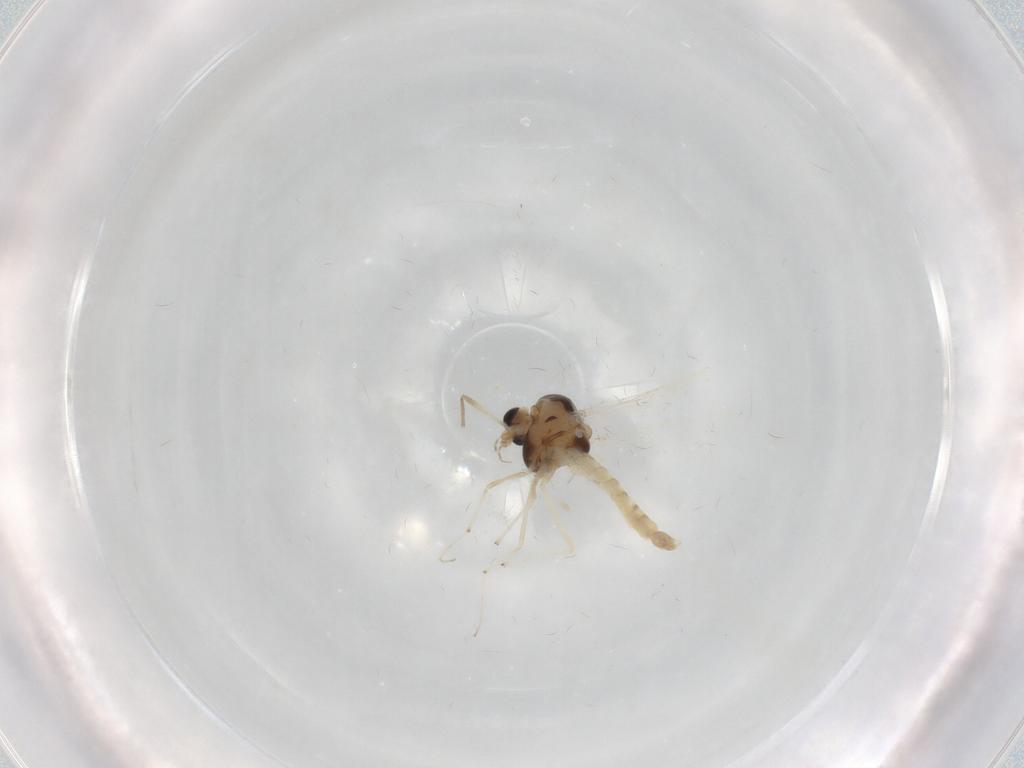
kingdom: Animalia
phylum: Arthropoda
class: Insecta
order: Diptera
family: Chironomidae
